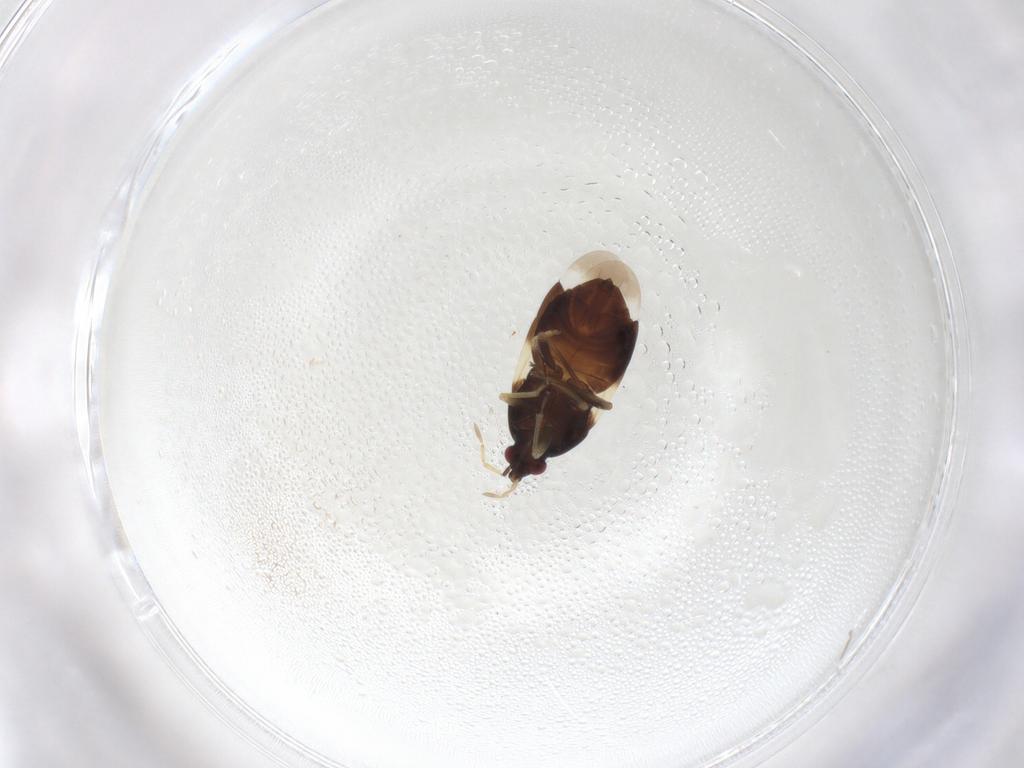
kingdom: Animalia
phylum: Arthropoda
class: Insecta
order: Hemiptera
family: Anthocoridae
